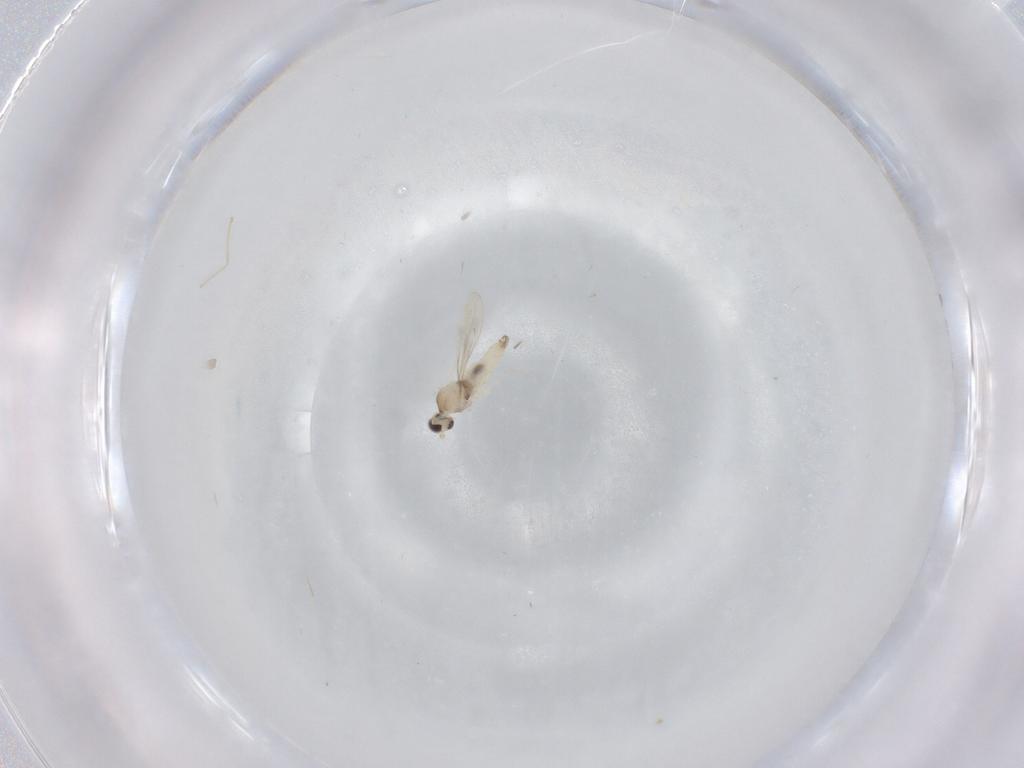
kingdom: Animalia
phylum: Arthropoda
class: Insecta
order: Diptera
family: Cecidomyiidae
